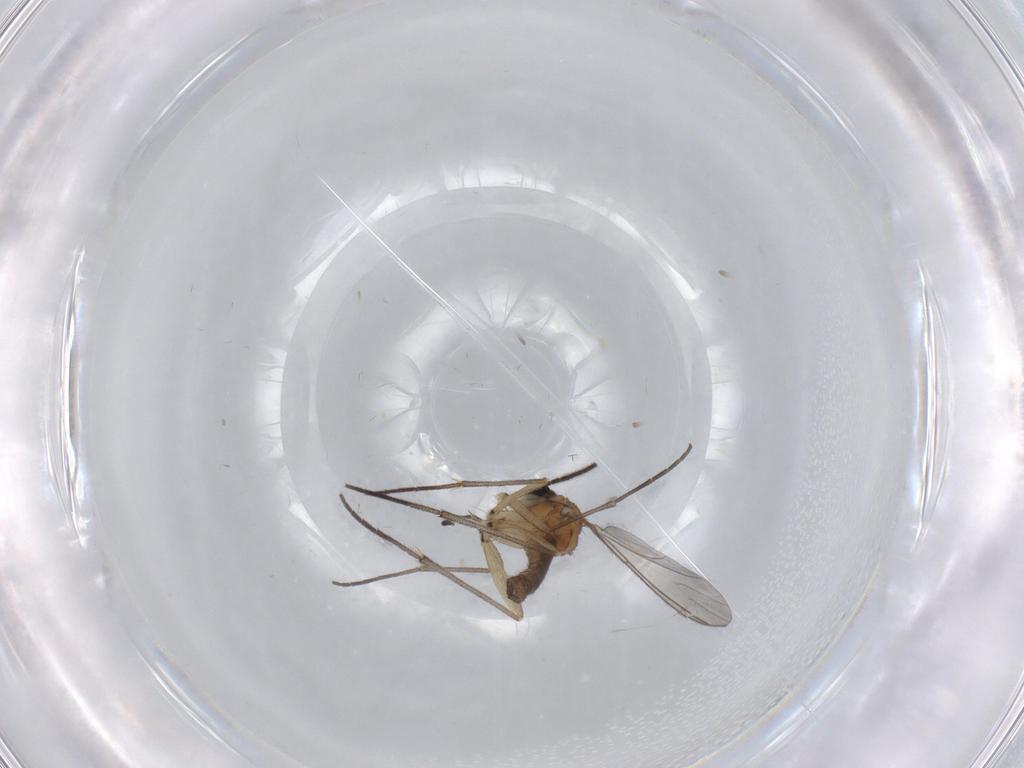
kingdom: Animalia
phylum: Arthropoda
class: Insecta
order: Diptera
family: Sciaridae
